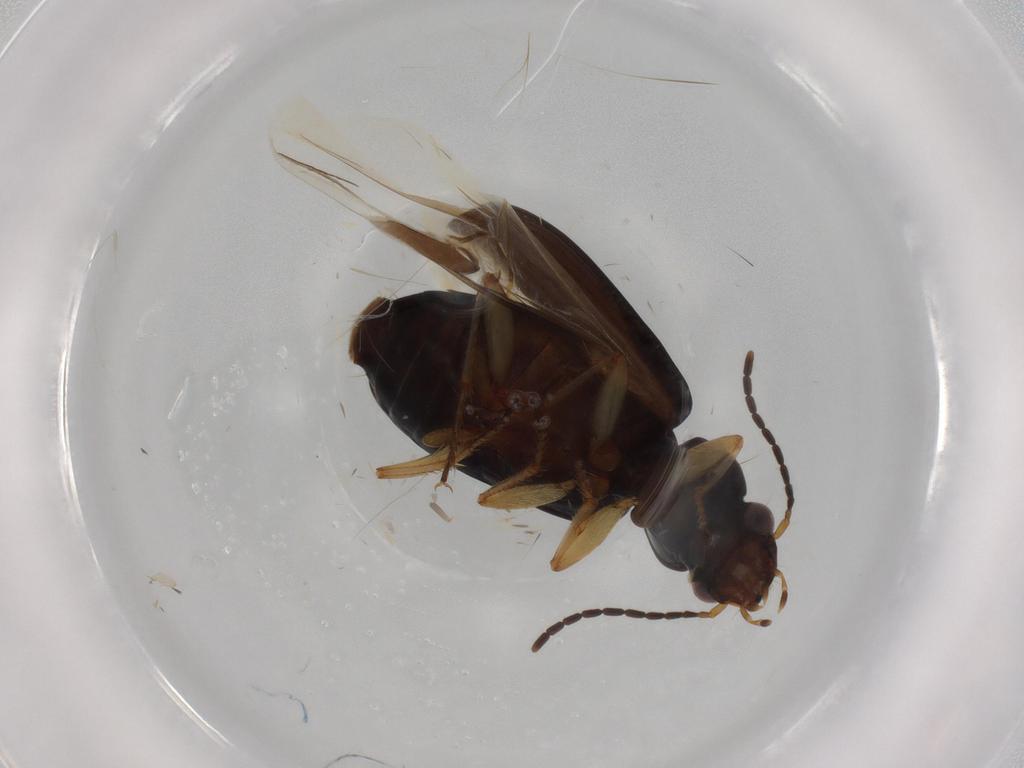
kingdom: Animalia
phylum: Arthropoda
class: Insecta
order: Coleoptera
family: Carabidae
